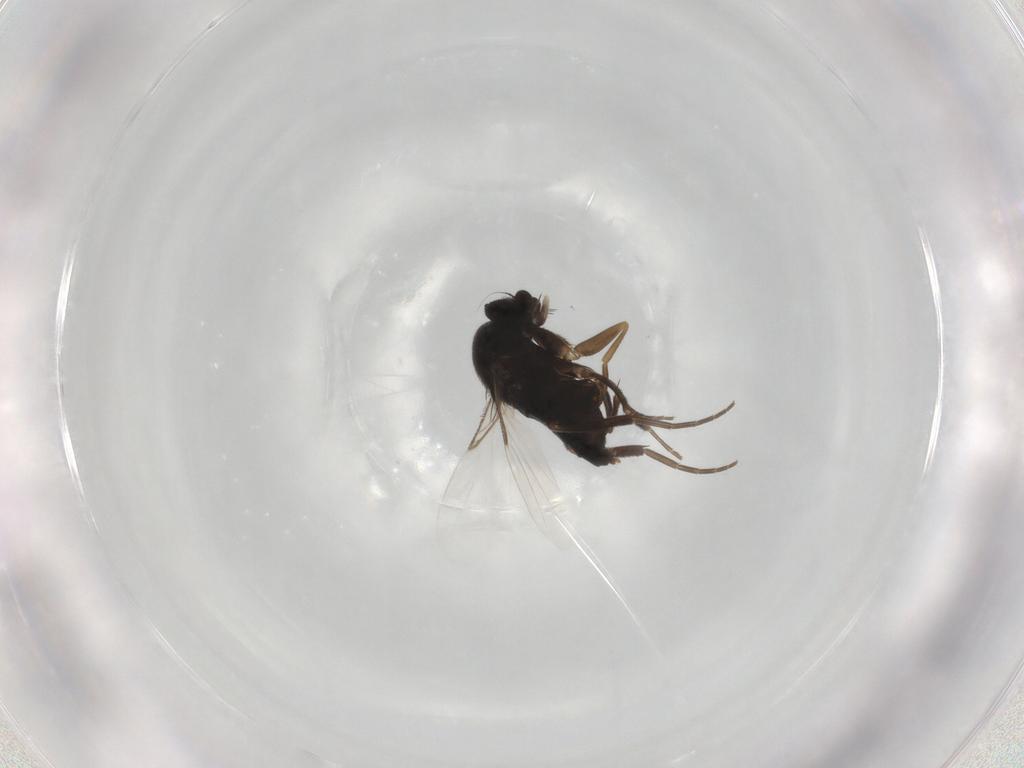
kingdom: Animalia
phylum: Arthropoda
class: Insecta
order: Diptera
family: Phoridae
